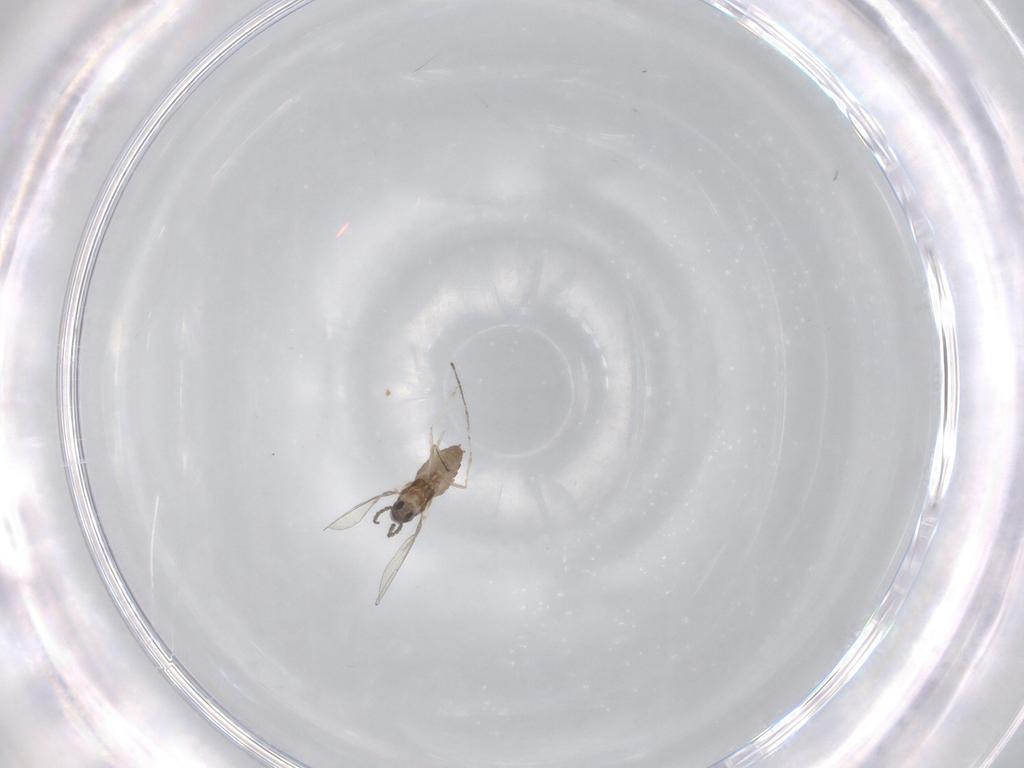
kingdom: Animalia
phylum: Arthropoda
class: Insecta
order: Diptera
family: Cecidomyiidae
